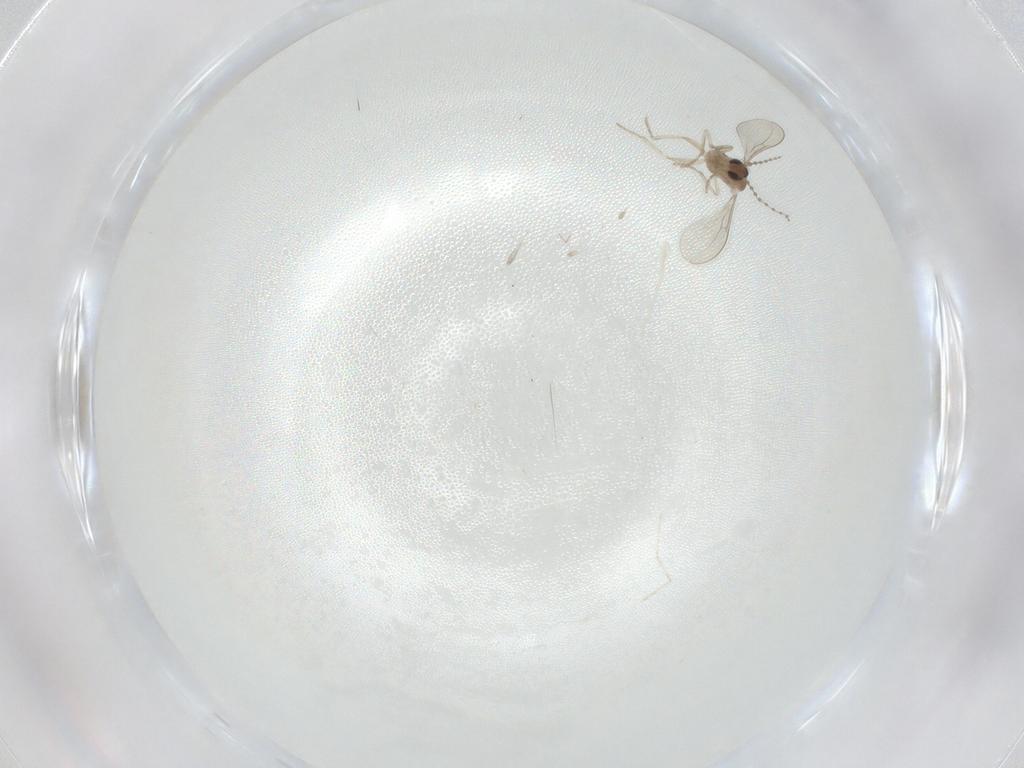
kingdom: Animalia
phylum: Arthropoda
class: Insecta
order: Diptera
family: Cecidomyiidae
